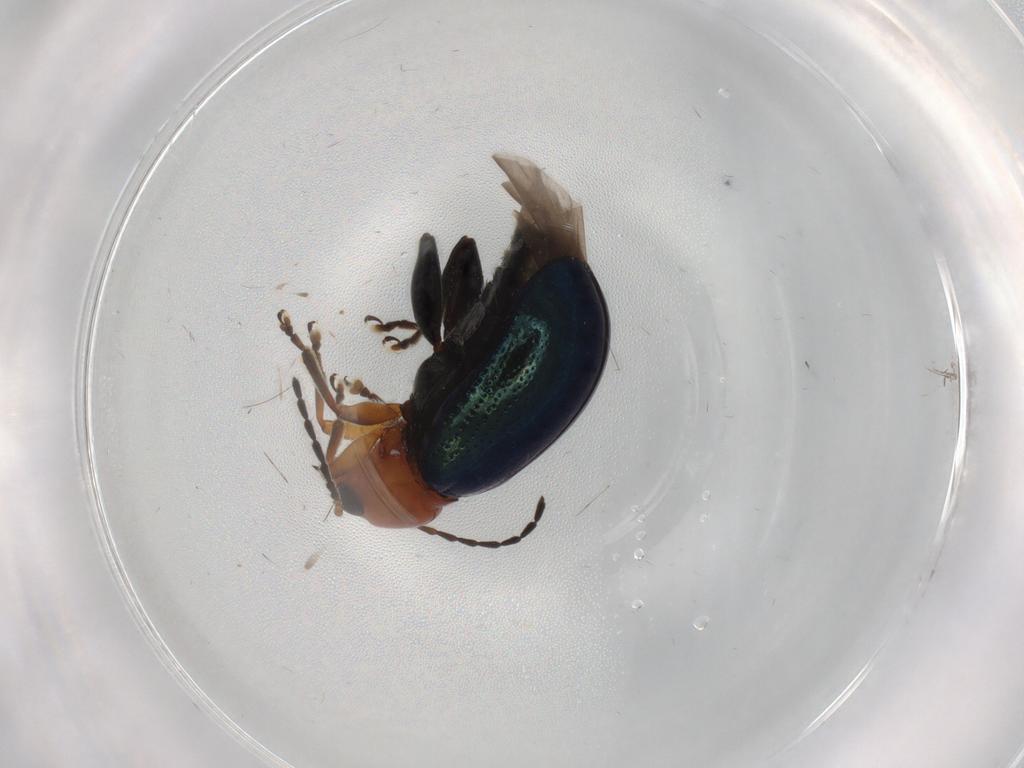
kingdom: Animalia
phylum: Arthropoda
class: Insecta
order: Coleoptera
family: Chrysomelidae
